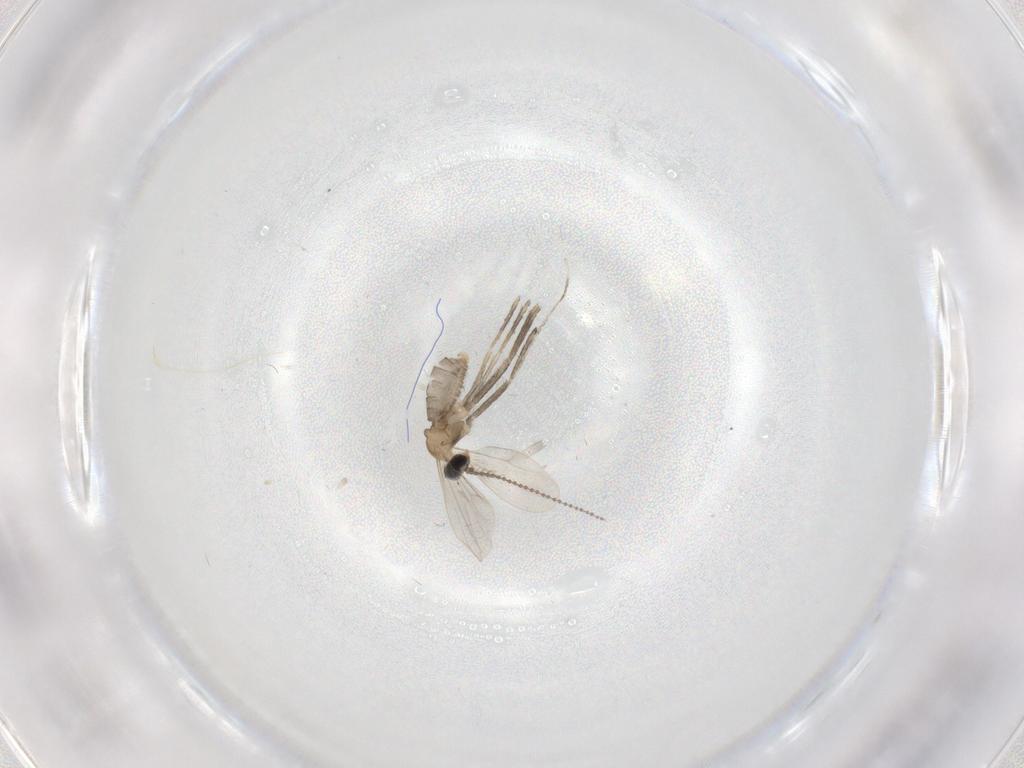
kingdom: Animalia
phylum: Arthropoda
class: Insecta
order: Diptera
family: Cecidomyiidae
